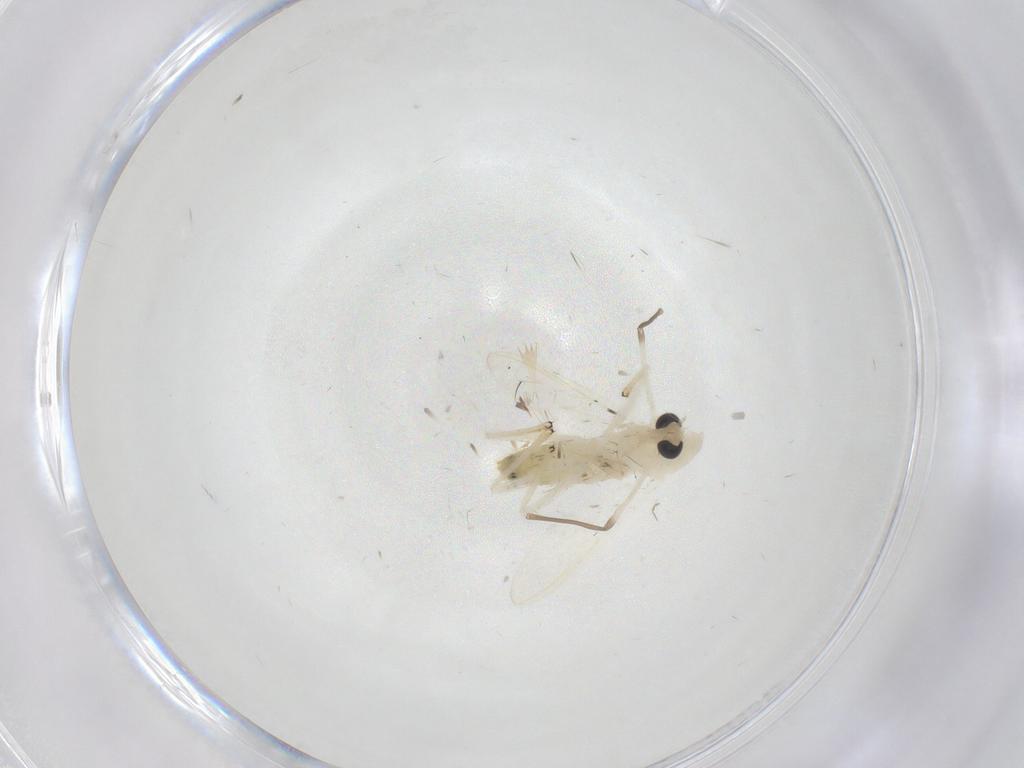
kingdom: Animalia
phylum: Arthropoda
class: Insecta
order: Diptera
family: Chironomidae
